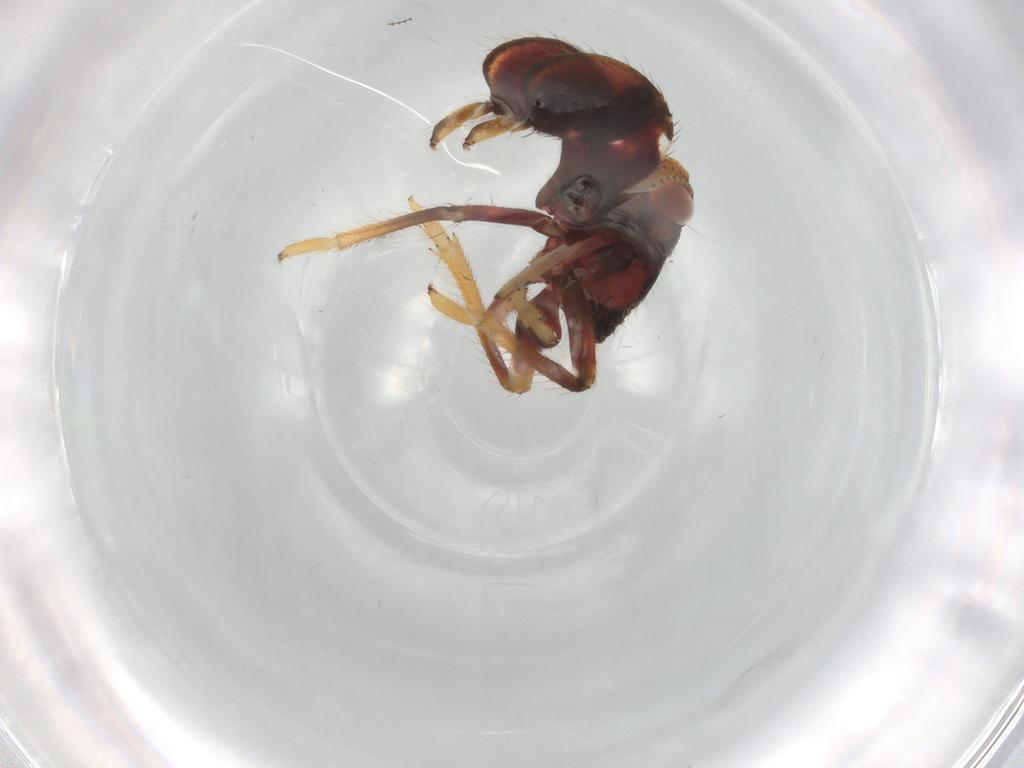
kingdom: Animalia
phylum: Arthropoda
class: Insecta
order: Hemiptera
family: Caliscelidae
